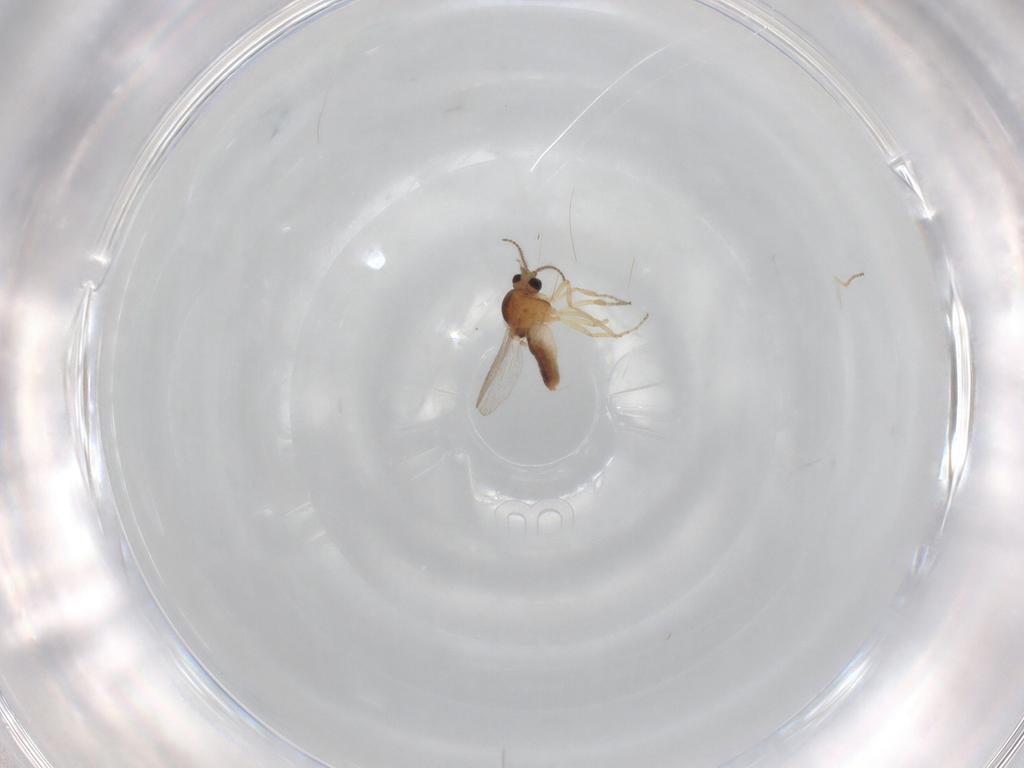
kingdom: Animalia
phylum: Arthropoda
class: Insecta
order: Diptera
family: Ceratopogonidae
